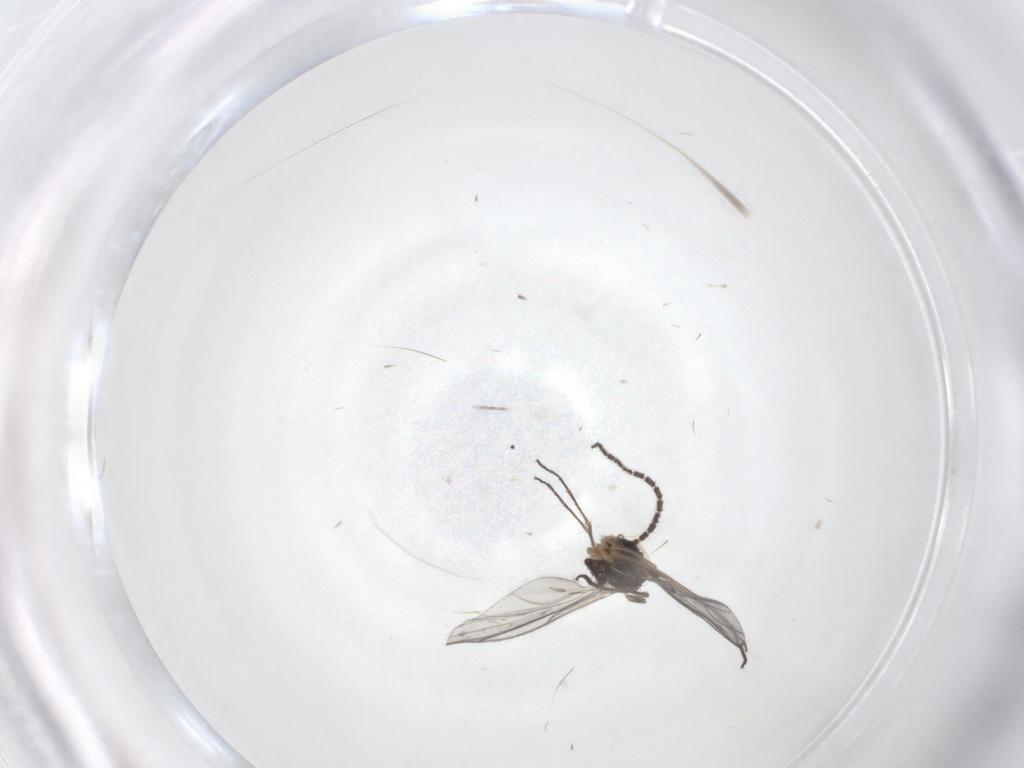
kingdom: Animalia
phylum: Arthropoda
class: Insecta
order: Diptera
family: Sciaridae
